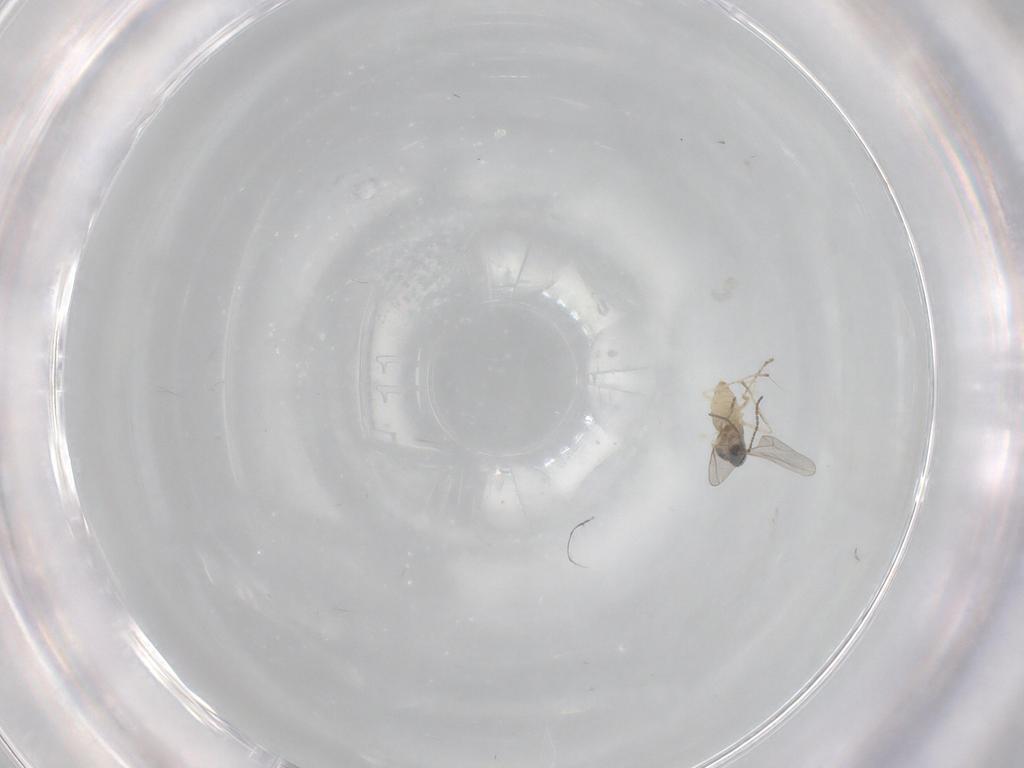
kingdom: Animalia
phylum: Arthropoda
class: Insecta
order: Diptera
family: Cecidomyiidae
